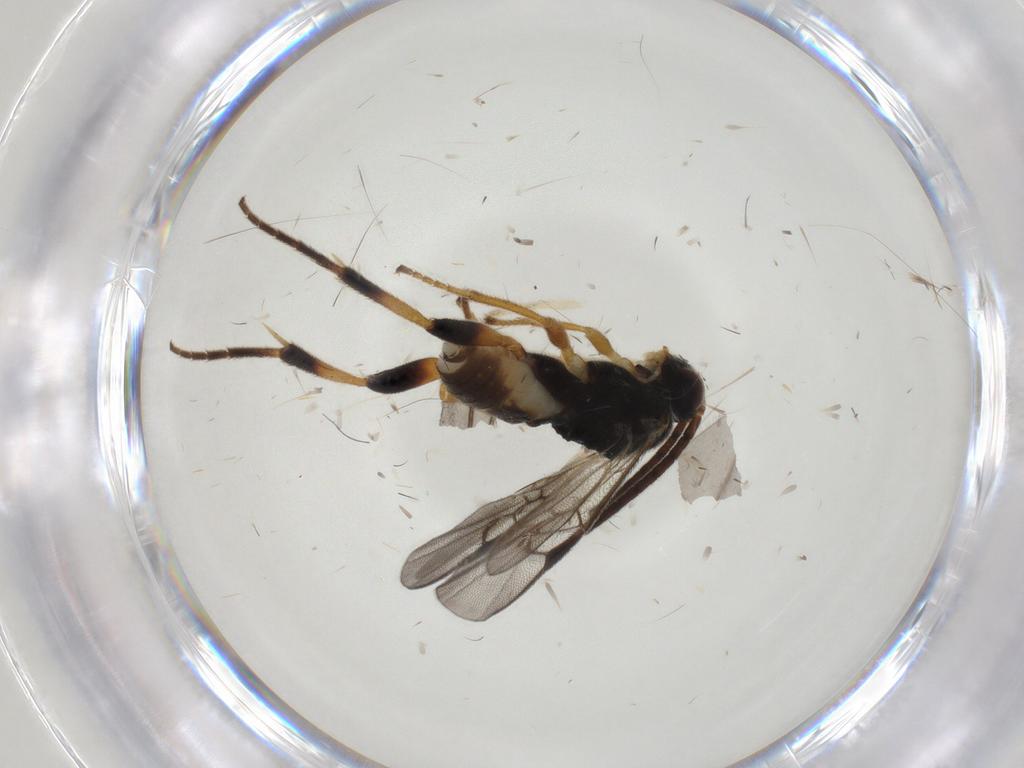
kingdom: Animalia
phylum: Arthropoda
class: Insecta
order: Hymenoptera
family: Braconidae
